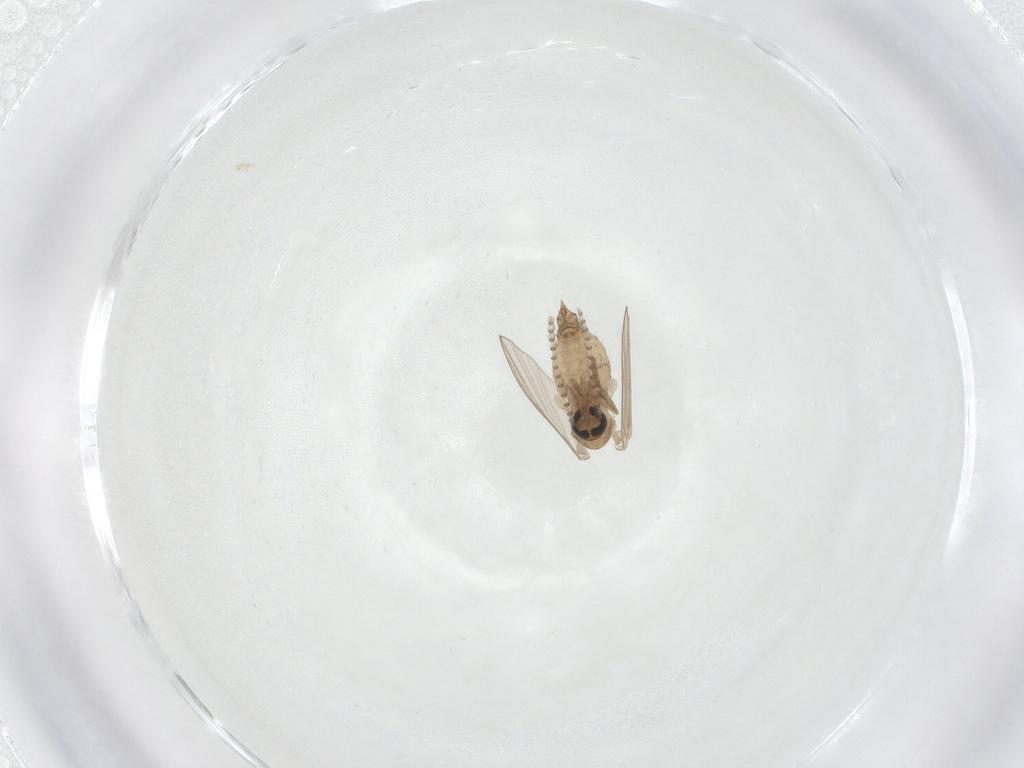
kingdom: Animalia
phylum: Arthropoda
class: Insecta
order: Diptera
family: Psychodidae
